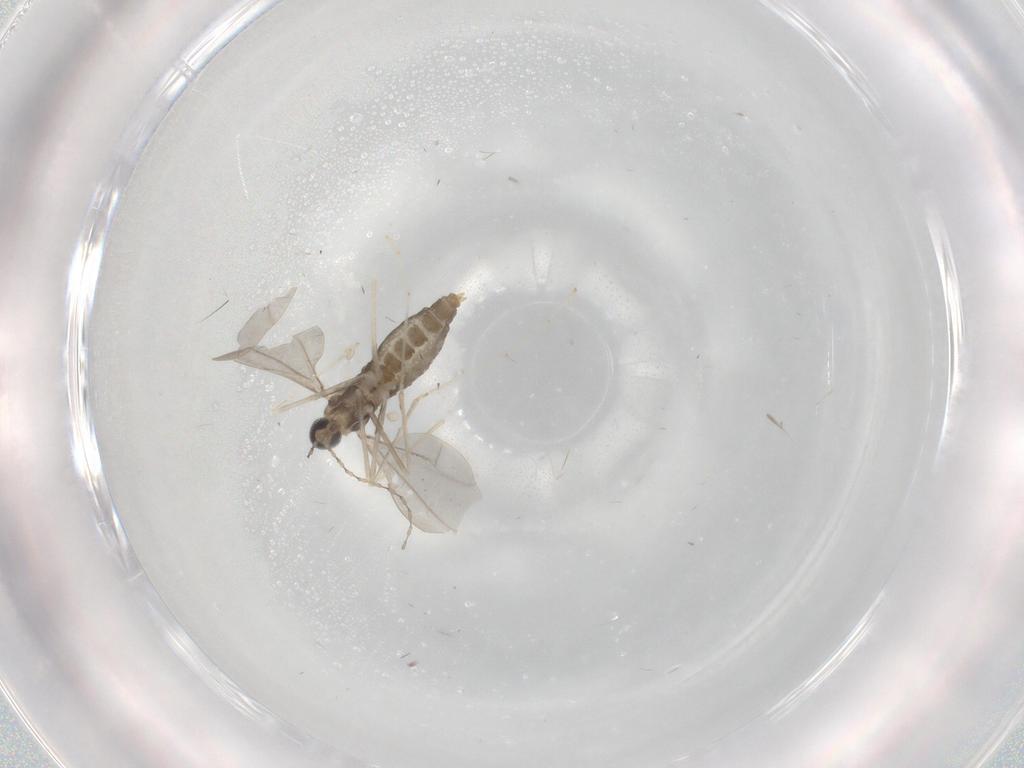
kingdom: Animalia
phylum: Arthropoda
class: Insecta
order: Diptera
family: Cecidomyiidae
